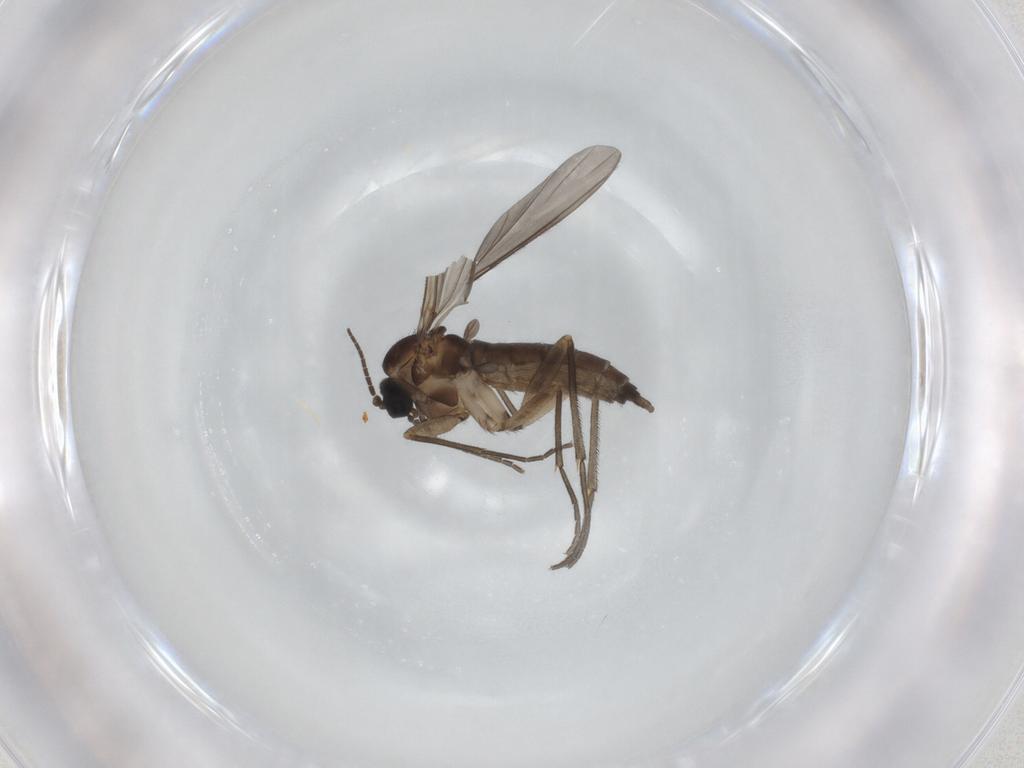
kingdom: Animalia
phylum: Arthropoda
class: Insecta
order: Diptera
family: Sciaridae
